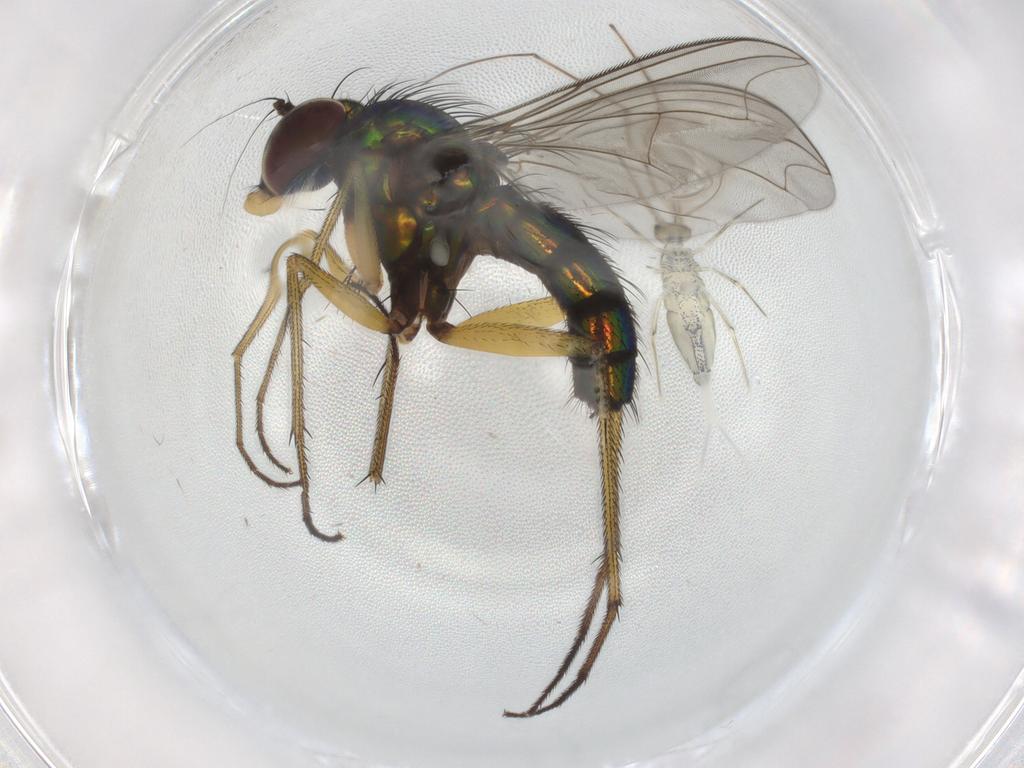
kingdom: Animalia
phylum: Arthropoda
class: Insecta
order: Diptera
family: Dolichopodidae
